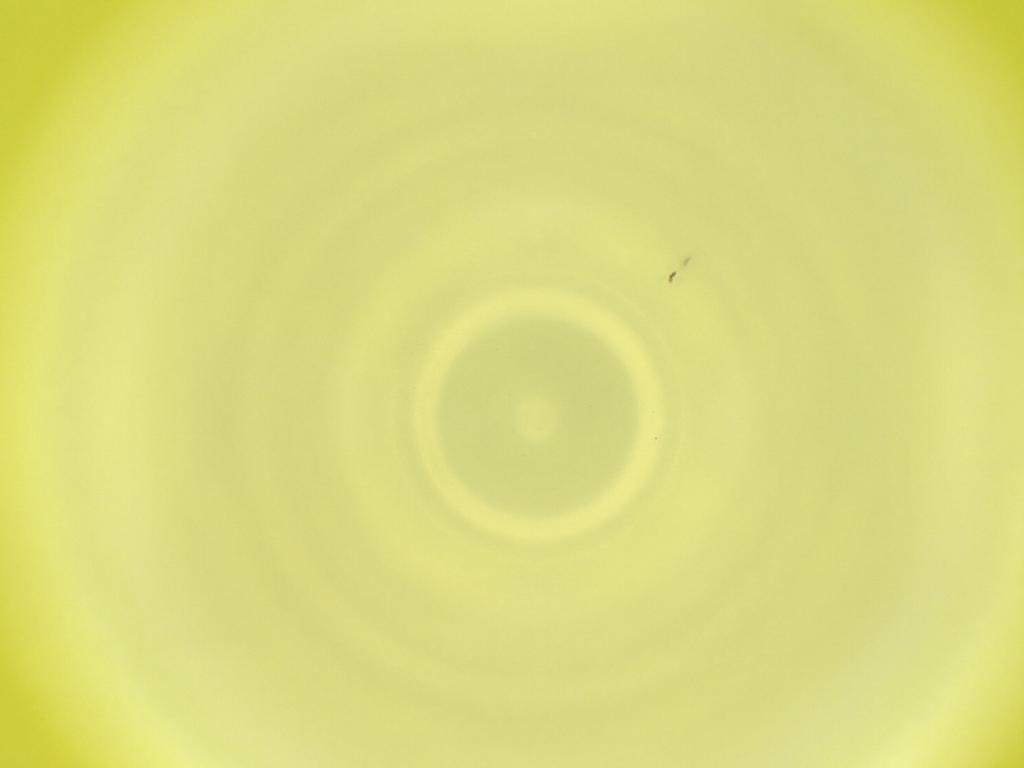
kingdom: Animalia
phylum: Arthropoda
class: Insecta
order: Diptera
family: Cecidomyiidae
